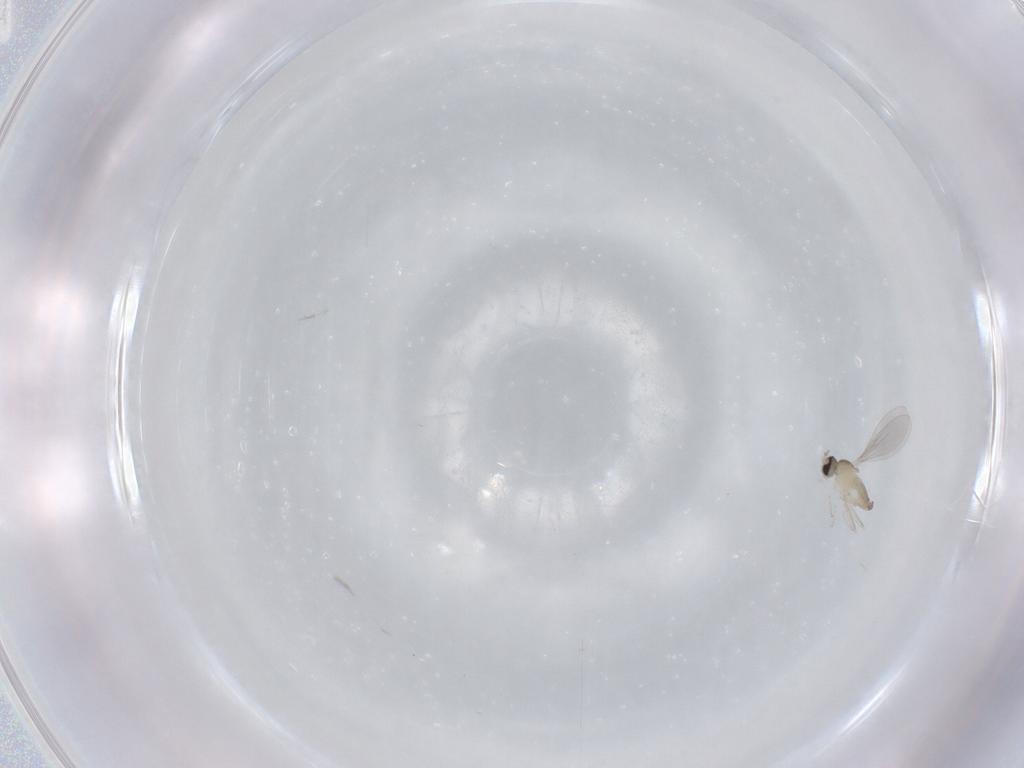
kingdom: Animalia
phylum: Arthropoda
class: Insecta
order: Diptera
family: Cecidomyiidae
